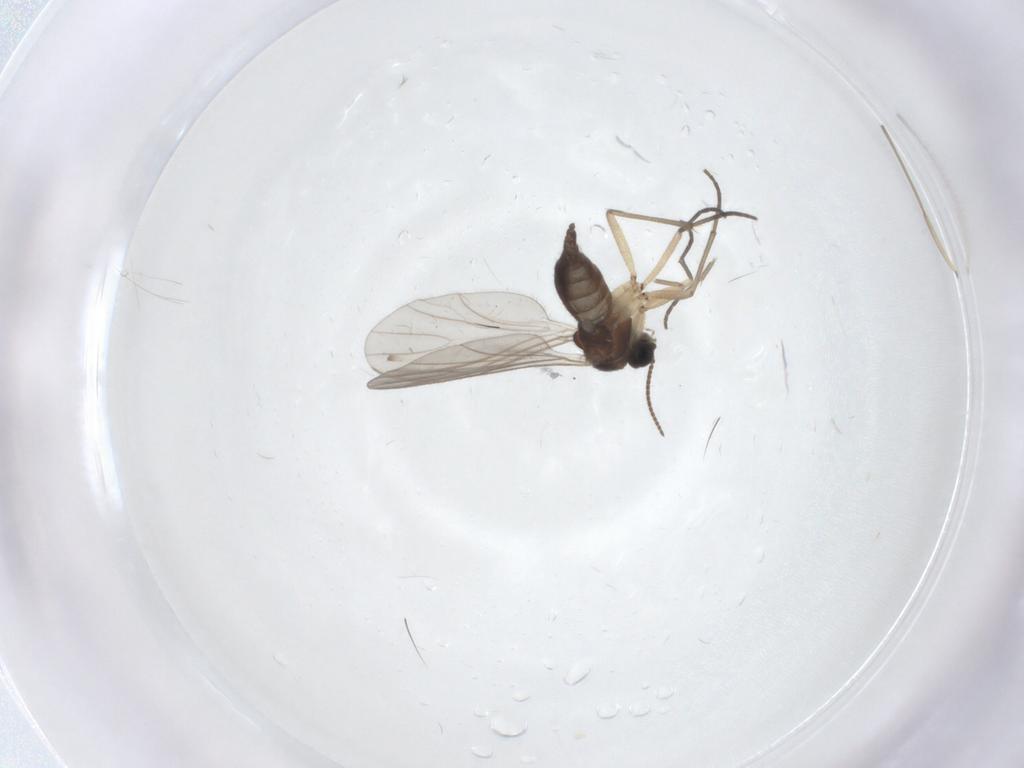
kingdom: Animalia
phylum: Arthropoda
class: Insecta
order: Diptera
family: Sciaridae
